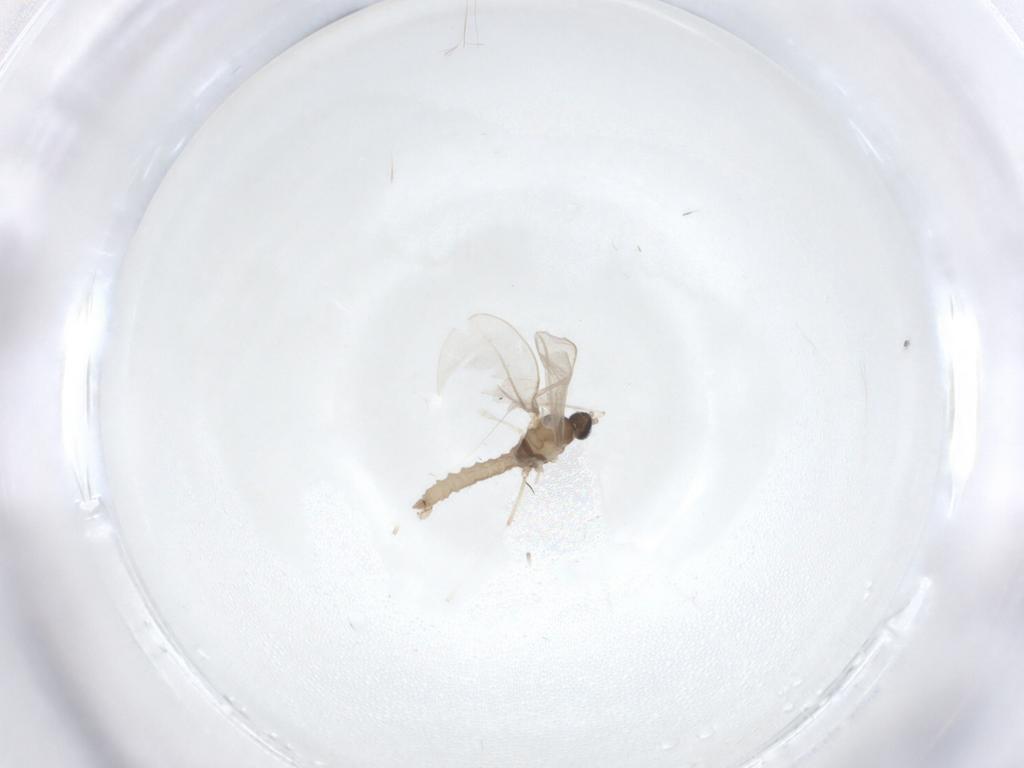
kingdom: Animalia
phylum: Arthropoda
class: Insecta
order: Diptera
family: Cecidomyiidae
